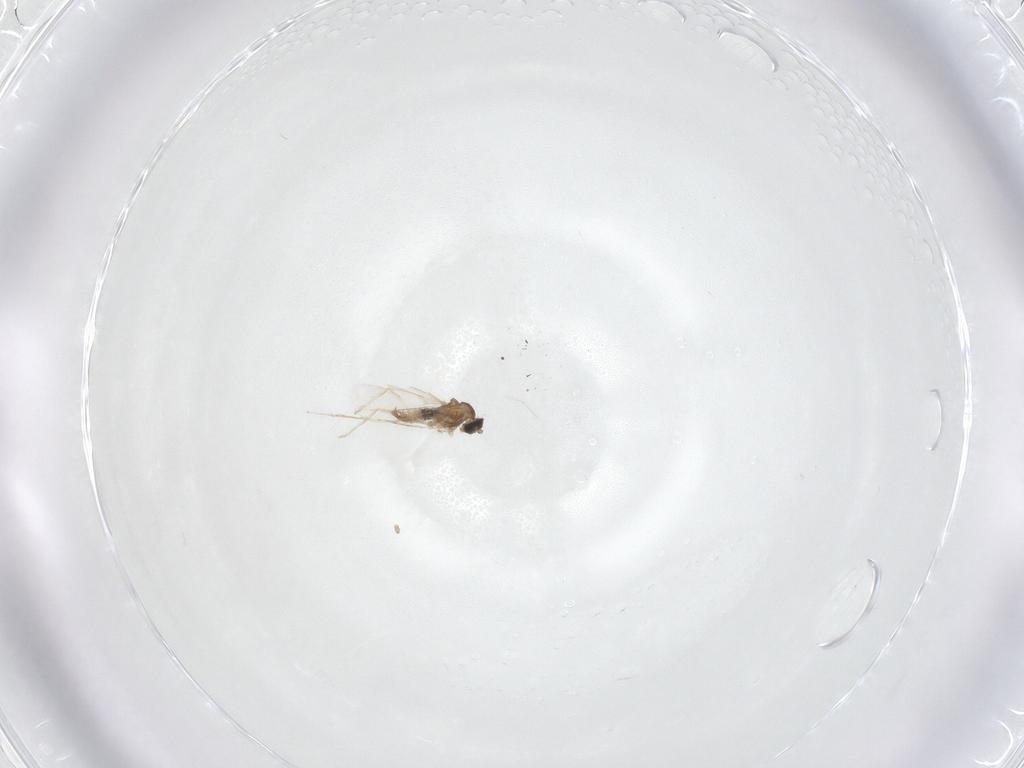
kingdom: Animalia
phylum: Arthropoda
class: Insecta
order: Diptera
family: Cecidomyiidae
